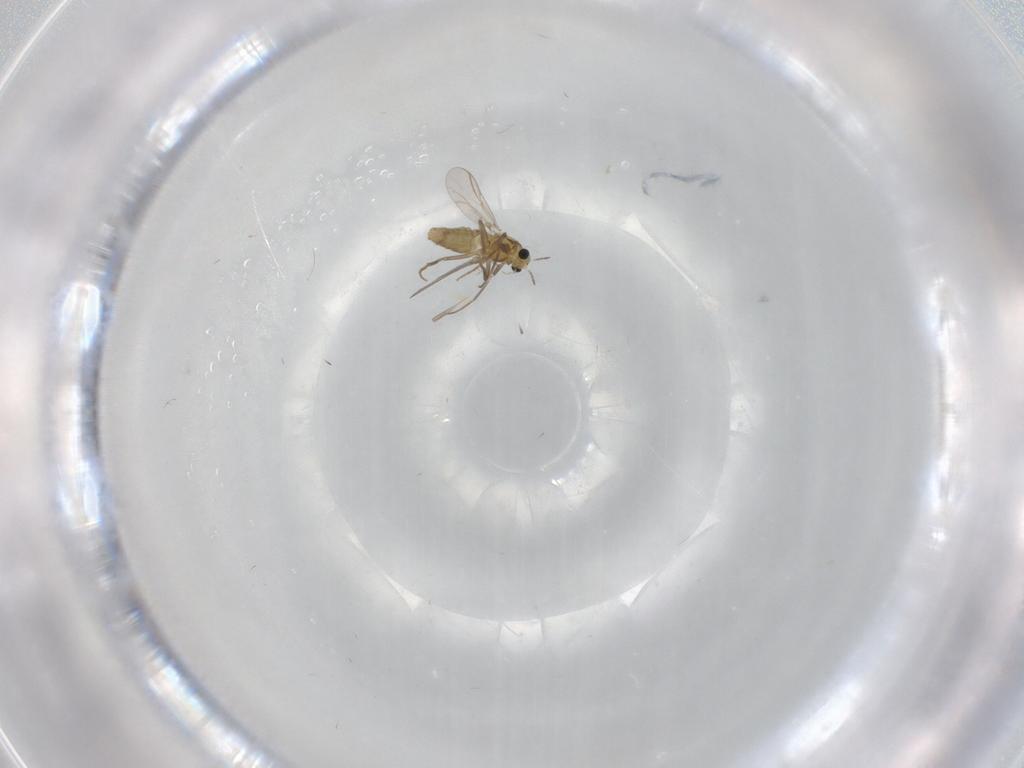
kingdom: Animalia
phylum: Arthropoda
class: Insecta
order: Diptera
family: Chironomidae
